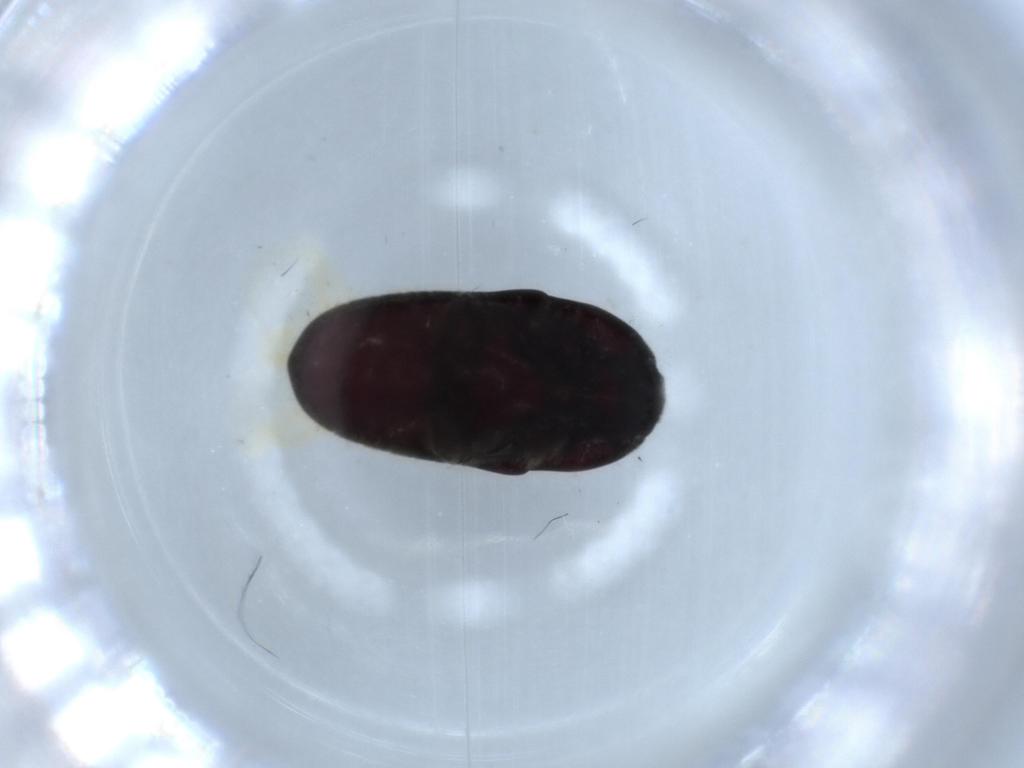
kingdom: Animalia
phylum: Arthropoda
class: Insecta
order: Coleoptera
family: Throscidae
